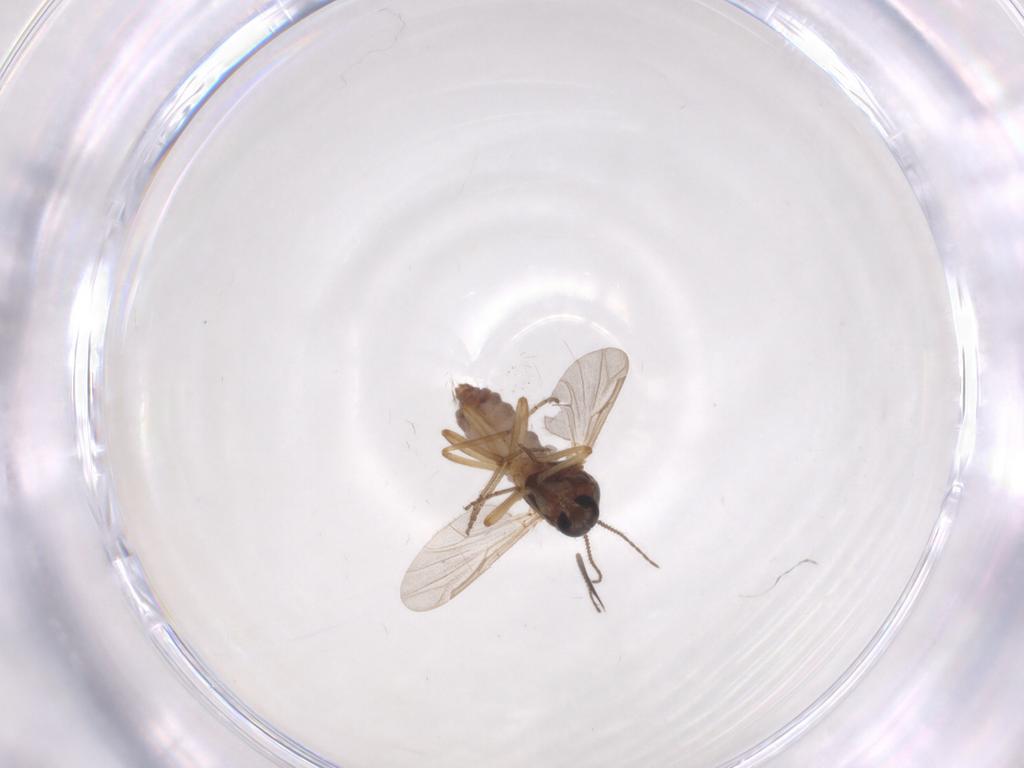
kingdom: Animalia
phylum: Arthropoda
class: Insecta
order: Diptera
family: Ceratopogonidae
